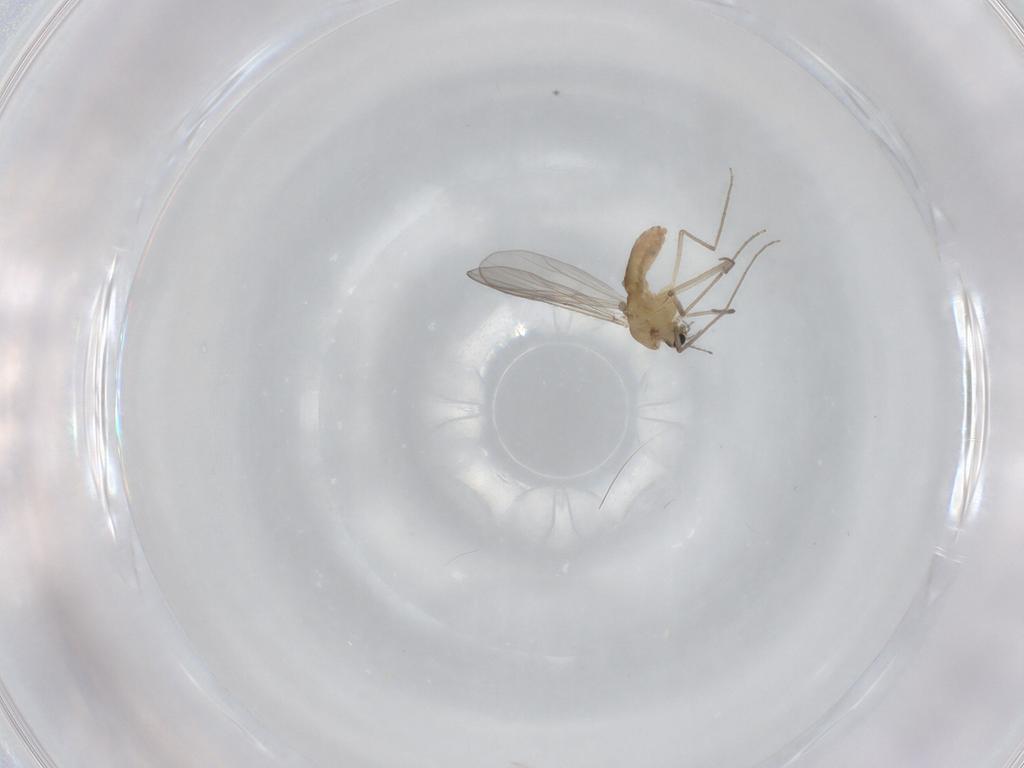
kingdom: Animalia
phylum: Arthropoda
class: Insecta
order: Diptera
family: Chironomidae
